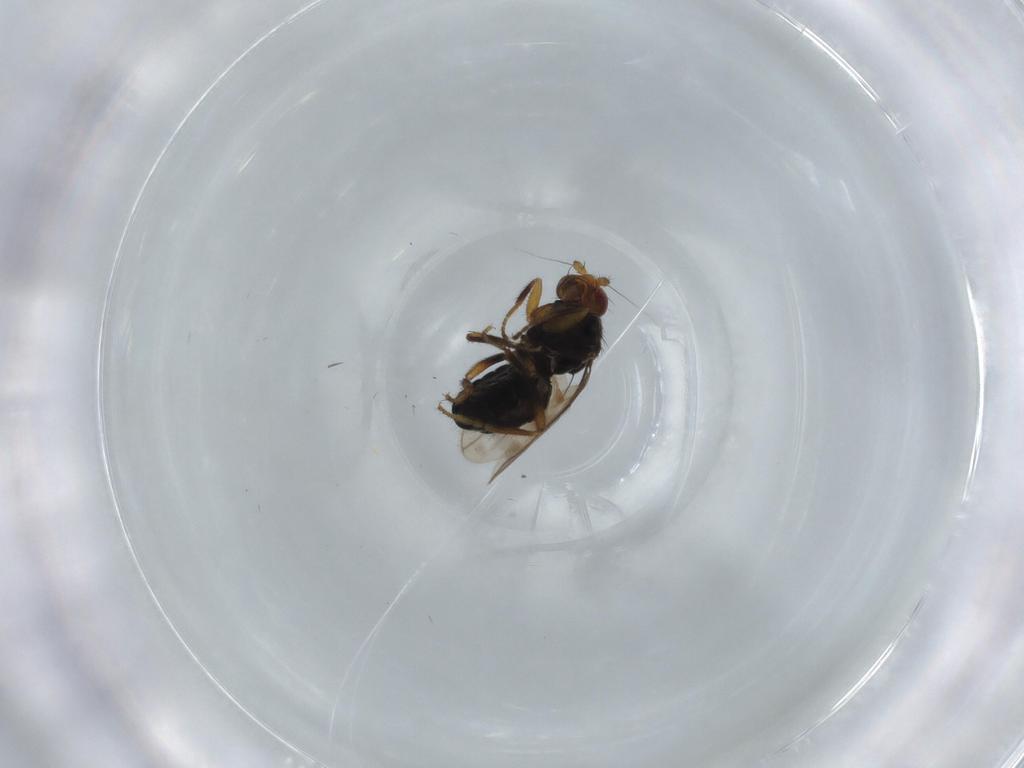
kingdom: Animalia
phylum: Arthropoda
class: Insecta
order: Diptera
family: Sphaeroceridae
